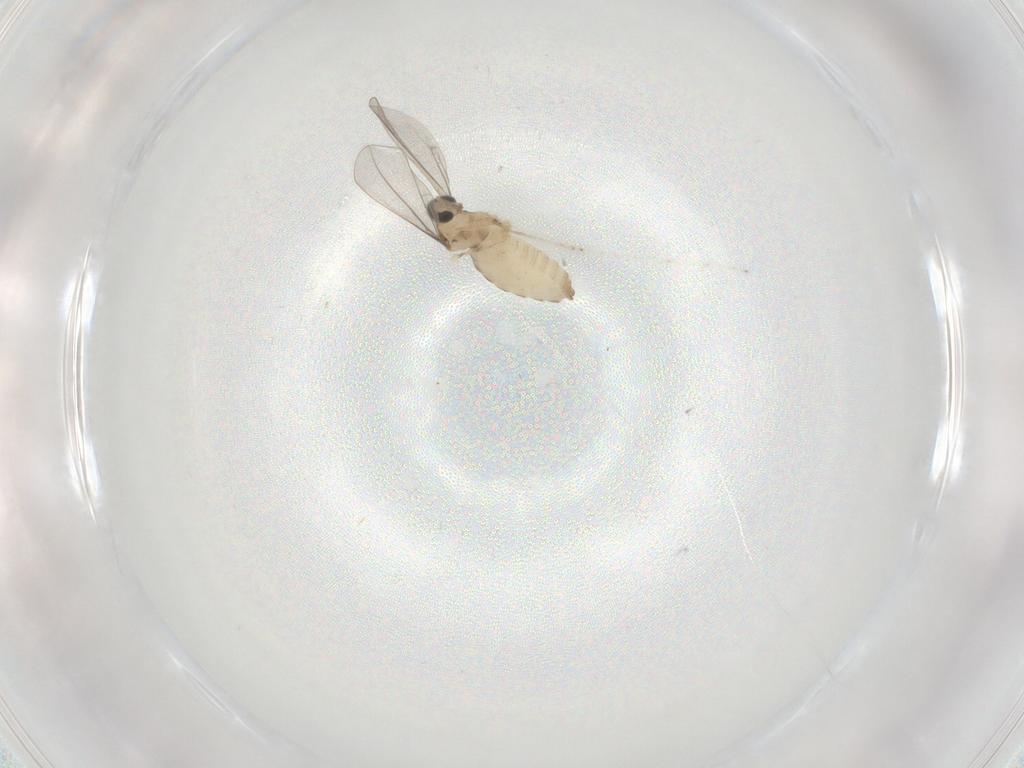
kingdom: Animalia
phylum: Arthropoda
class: Insecta
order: Diptera
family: Cecidomyiidae
